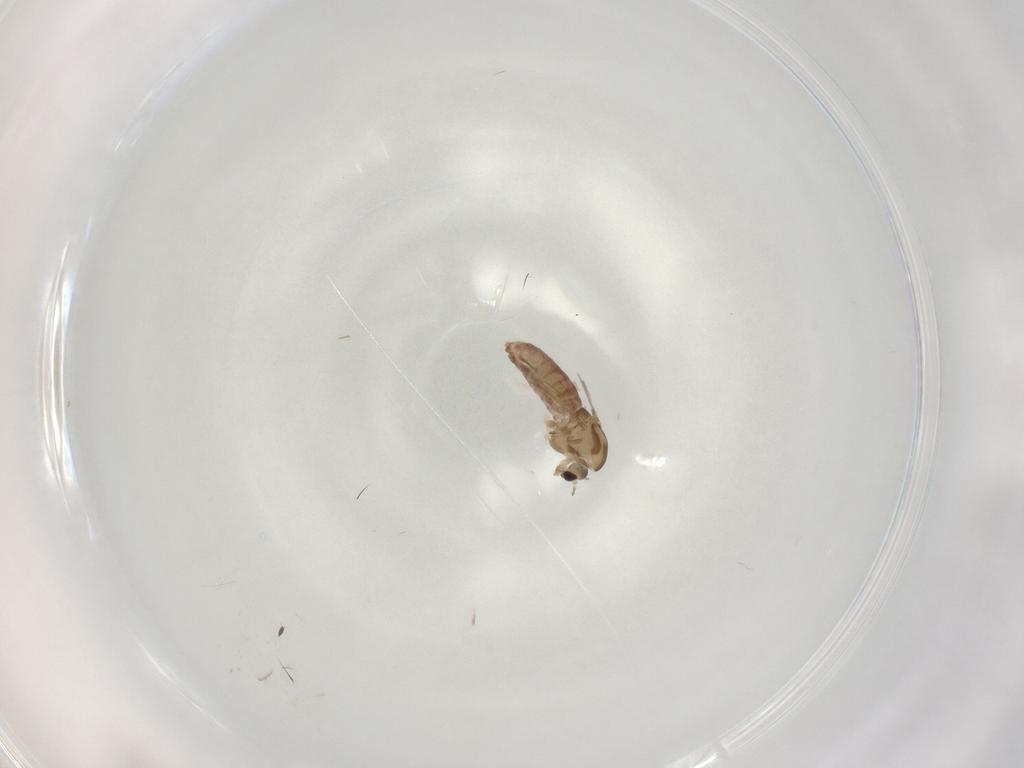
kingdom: Animalia
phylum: Arthropoda
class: Insecta
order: Diptera
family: Chironomidae
